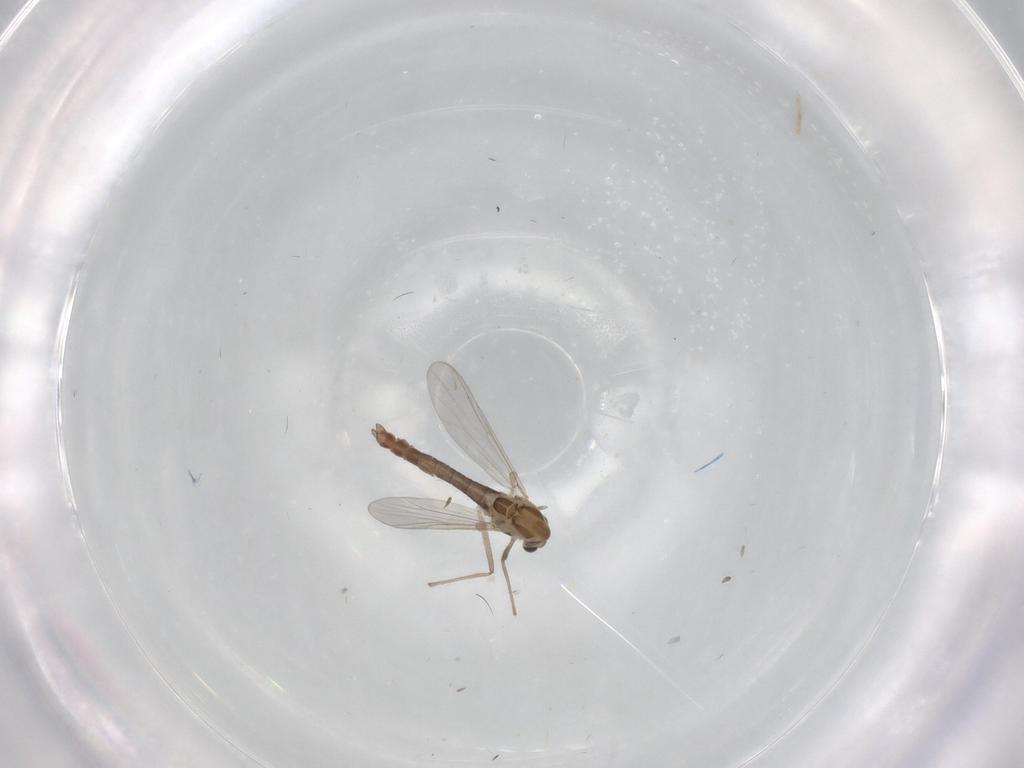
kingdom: Animalia
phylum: Arthropoda
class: Insecta
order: Diptera
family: Chironomidae
